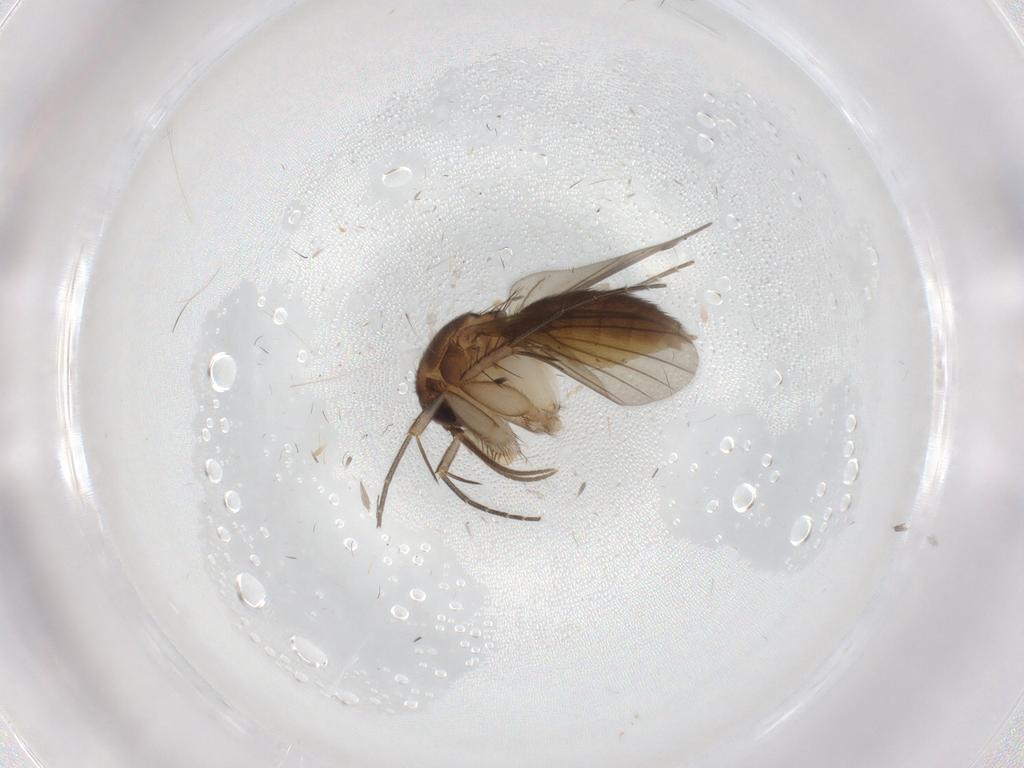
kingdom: Animalia
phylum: Arthropoda
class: Insecta
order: Diptera
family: Mycetophilidae
